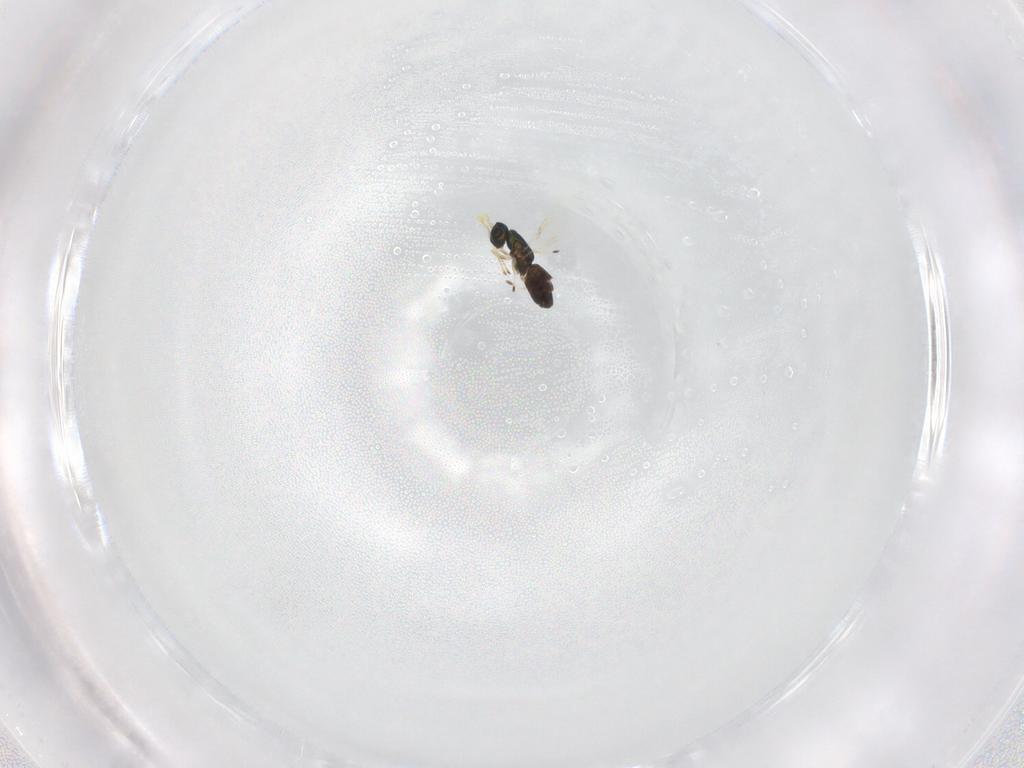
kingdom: Animalia
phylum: Arthropoda
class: Insecta
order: Hymenoptera
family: Eulophidae
